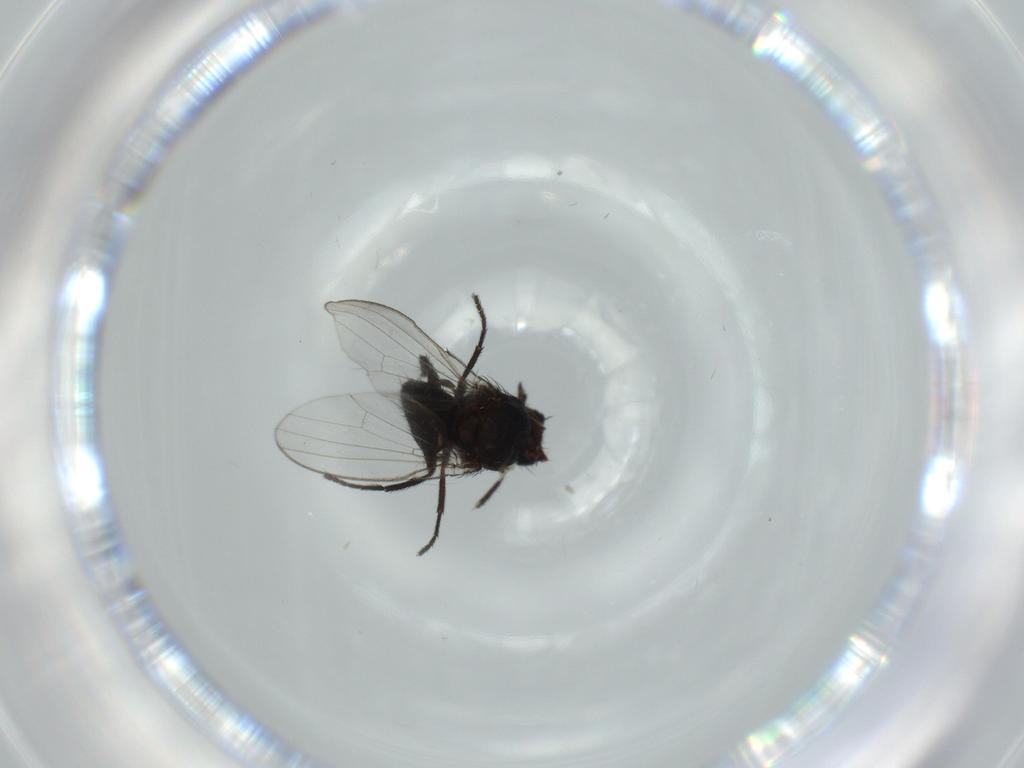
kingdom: Animalia
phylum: Arthropoda
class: Insecta
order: Diptera
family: Milichiidae
